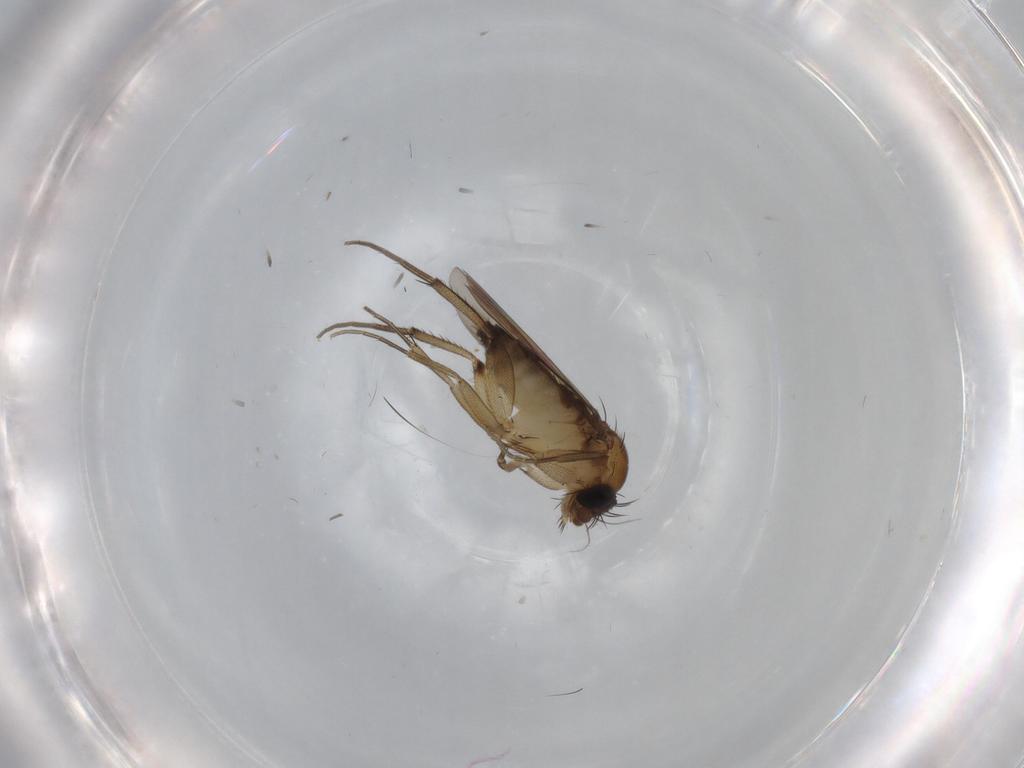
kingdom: Animalia
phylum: Arthropoda
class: Insecta
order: Diptera
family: Phoridae
